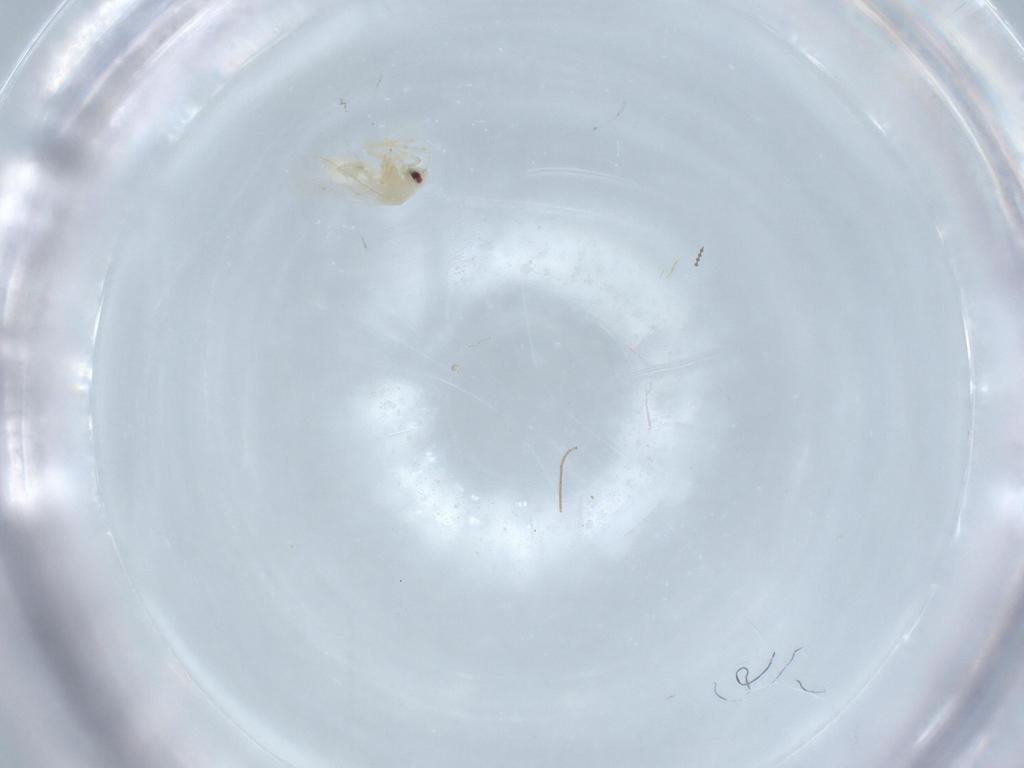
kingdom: Animalia
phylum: Arthropoda
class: Insecta
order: Hemiptera
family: Aleyrodidae
